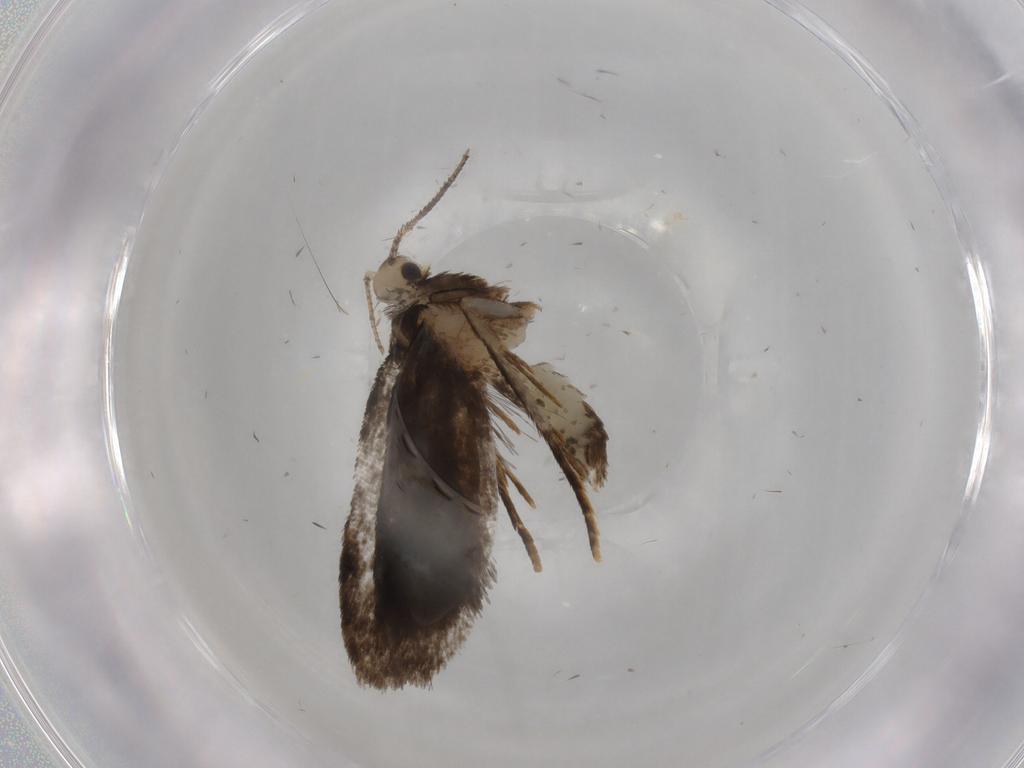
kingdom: Animalia
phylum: Arthropoda
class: Insecta
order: Lepidoptera
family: Psychidae
